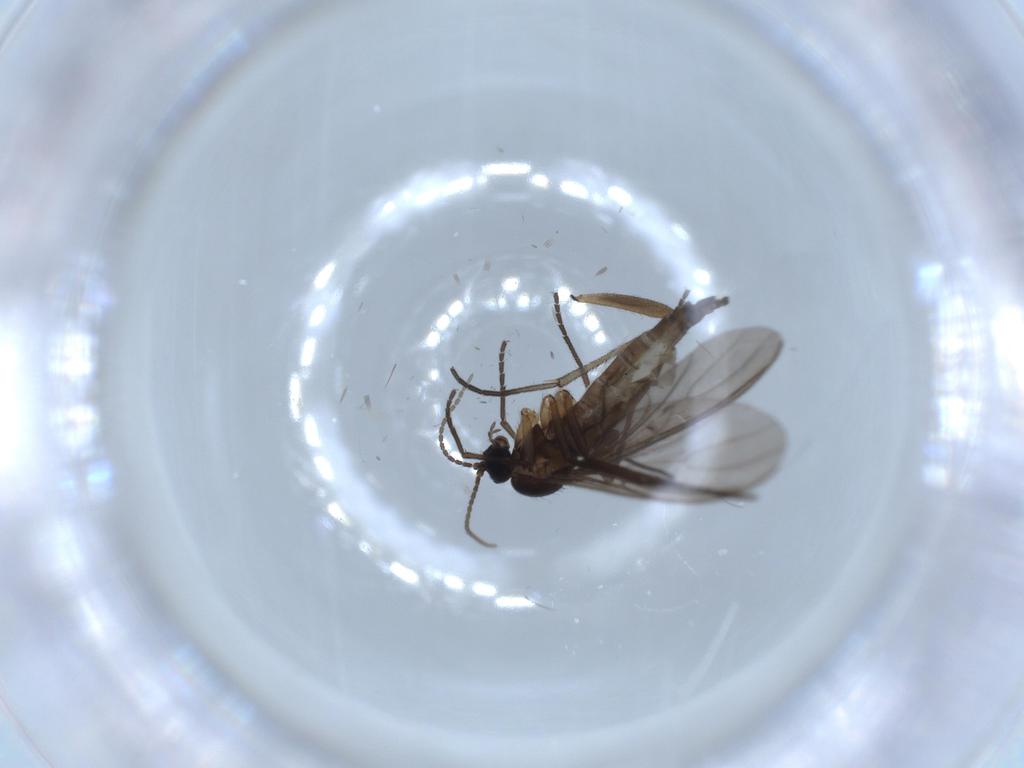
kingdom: Animalia
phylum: Arthropoda
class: Insecta
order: Diptera
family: Sciaridae
